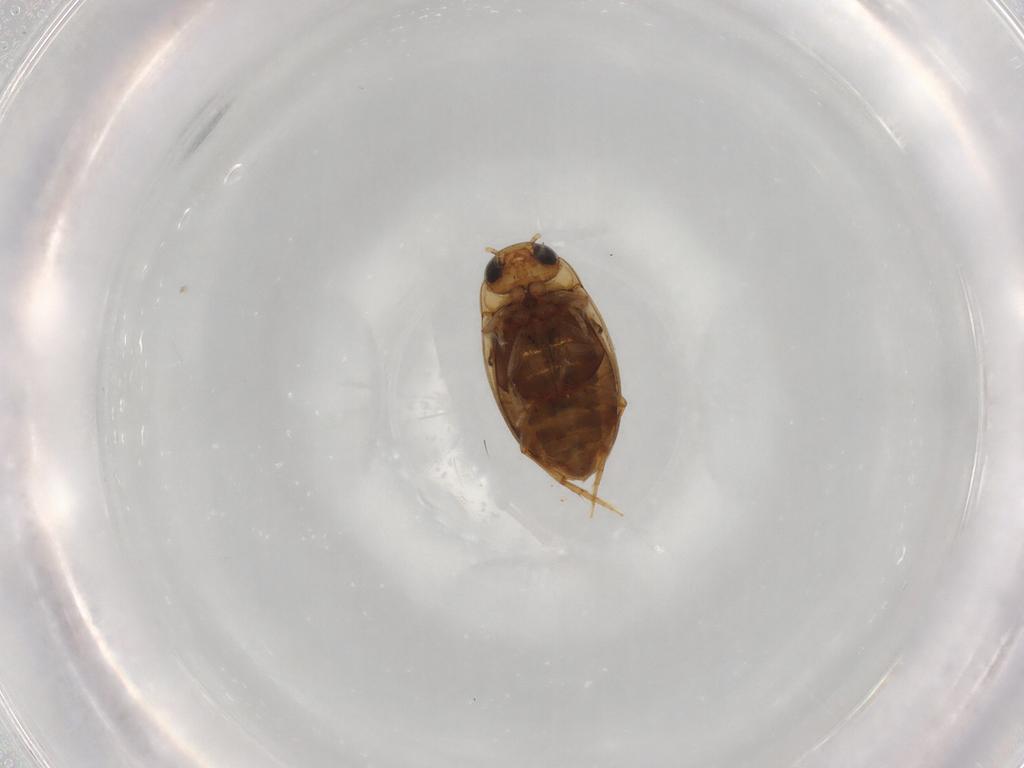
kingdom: Animalia
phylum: Arthropoda
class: Insecta
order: Coleoptera
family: Dytiscidae
